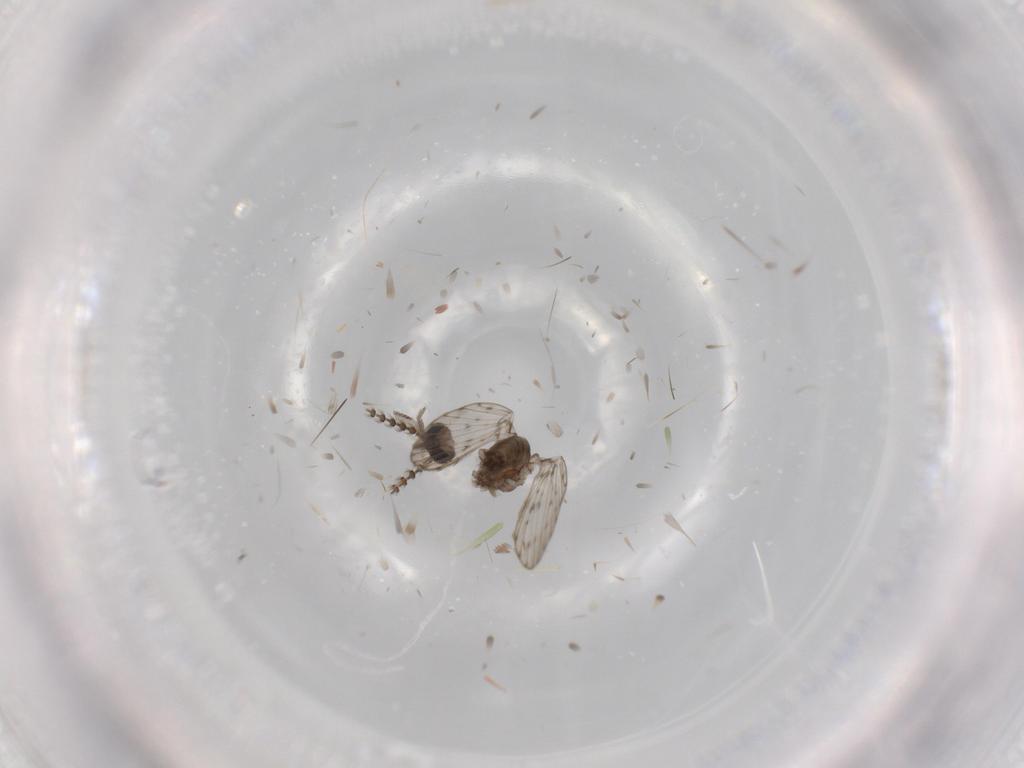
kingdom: Animalia
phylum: Arthropoda
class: Insecta
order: Diptera
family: Psychodidae
